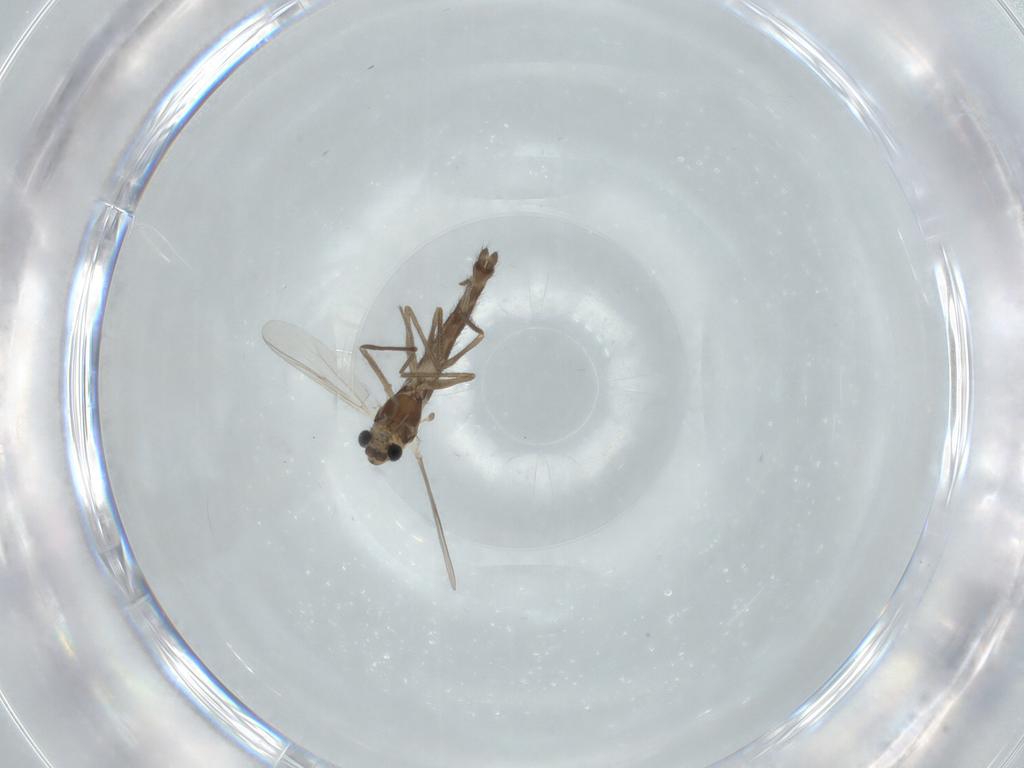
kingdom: Animalia
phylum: Arthropoda
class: Insecta
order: Diptera
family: Chironomidae
